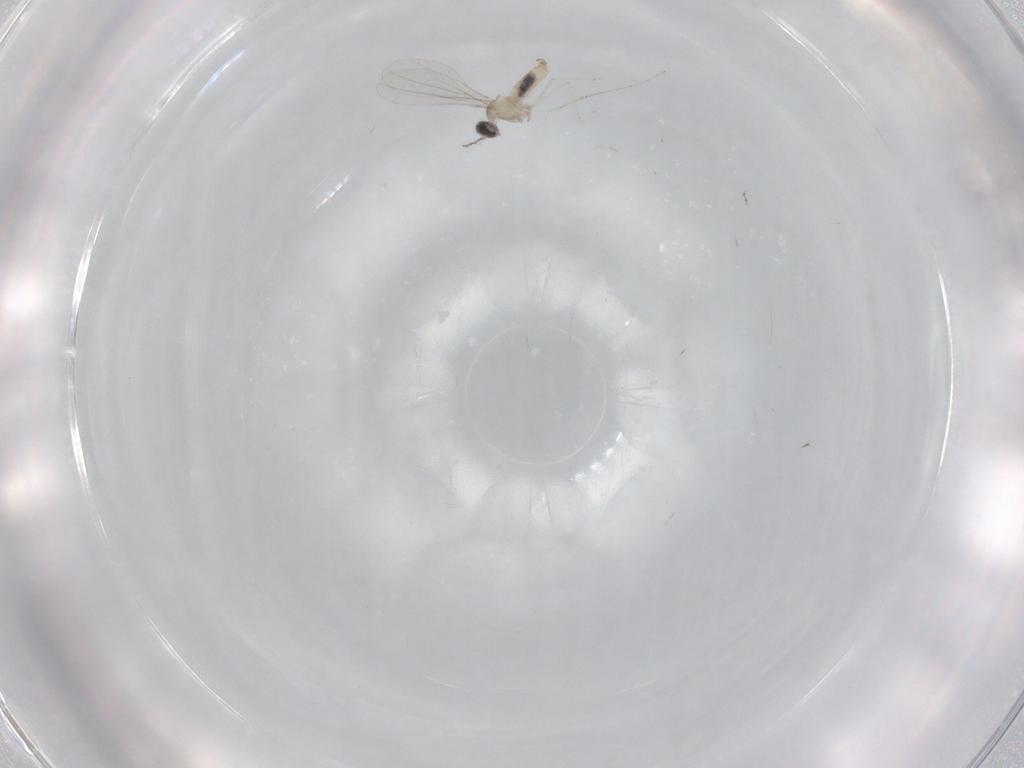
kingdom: Animalia
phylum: Arthropoda
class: Insecta
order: Diptera
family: Cecidomyiidae
